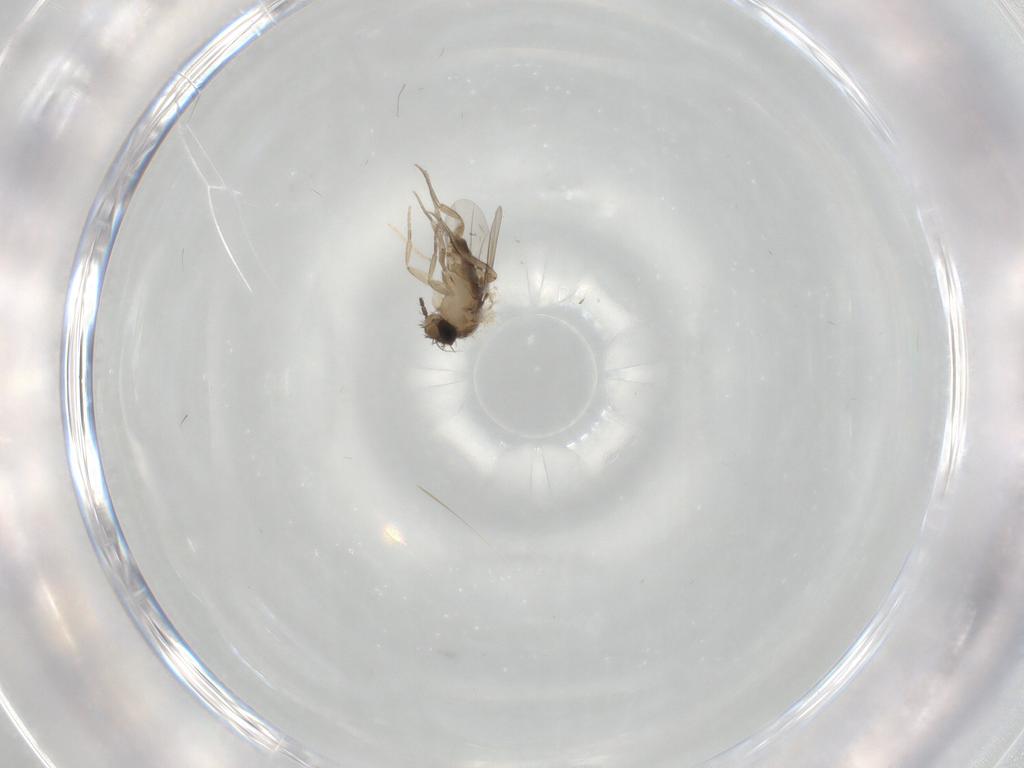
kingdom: Animalia
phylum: Arthropoda
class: Insecta
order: Diptera
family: Phoridae
